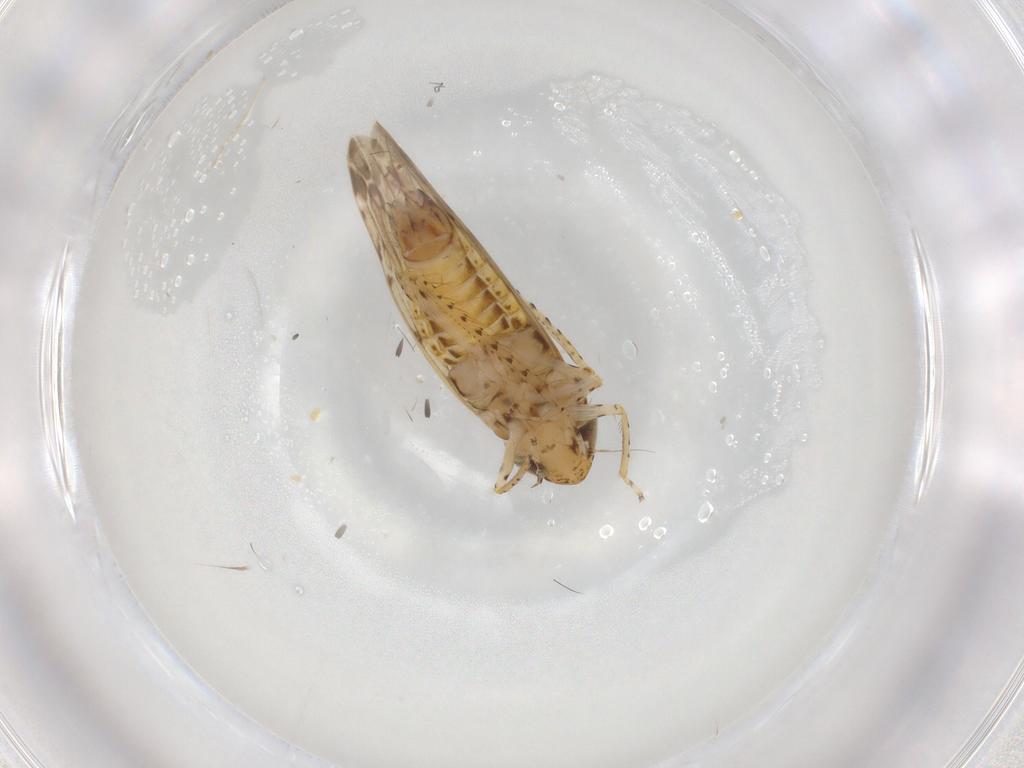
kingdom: Animalia
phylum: Arthropoda
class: Insecta
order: Hemiptera
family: Cicadellidae
